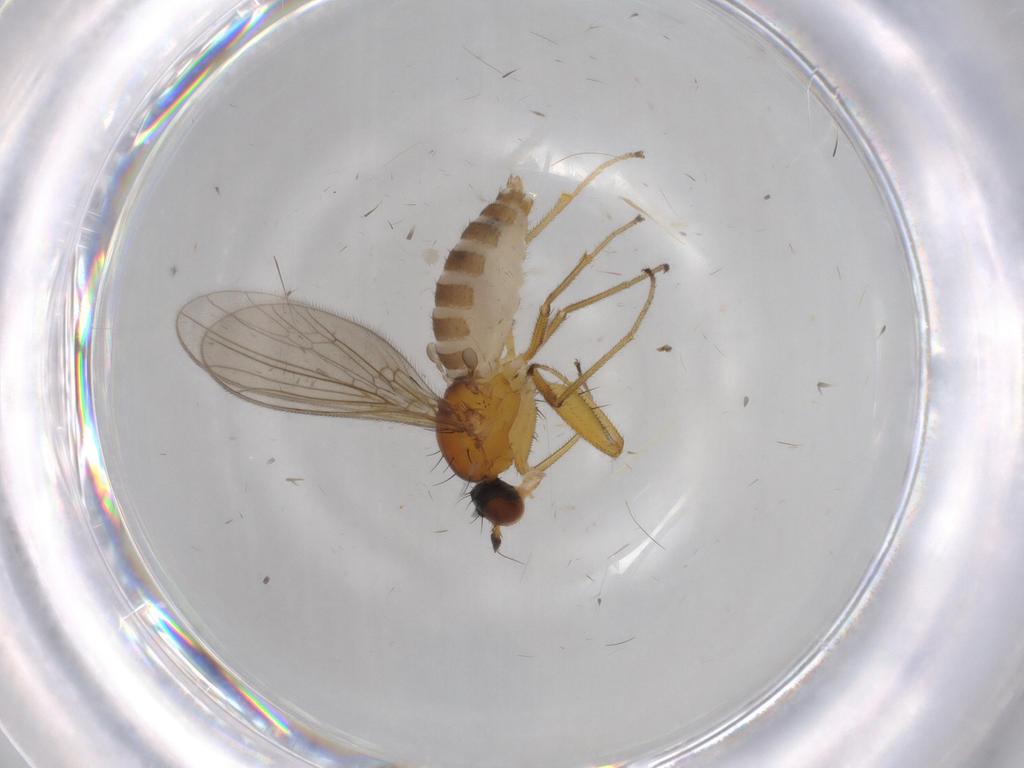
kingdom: Animalia
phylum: Arthropoda
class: Insecta
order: Diptera
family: Empididae
